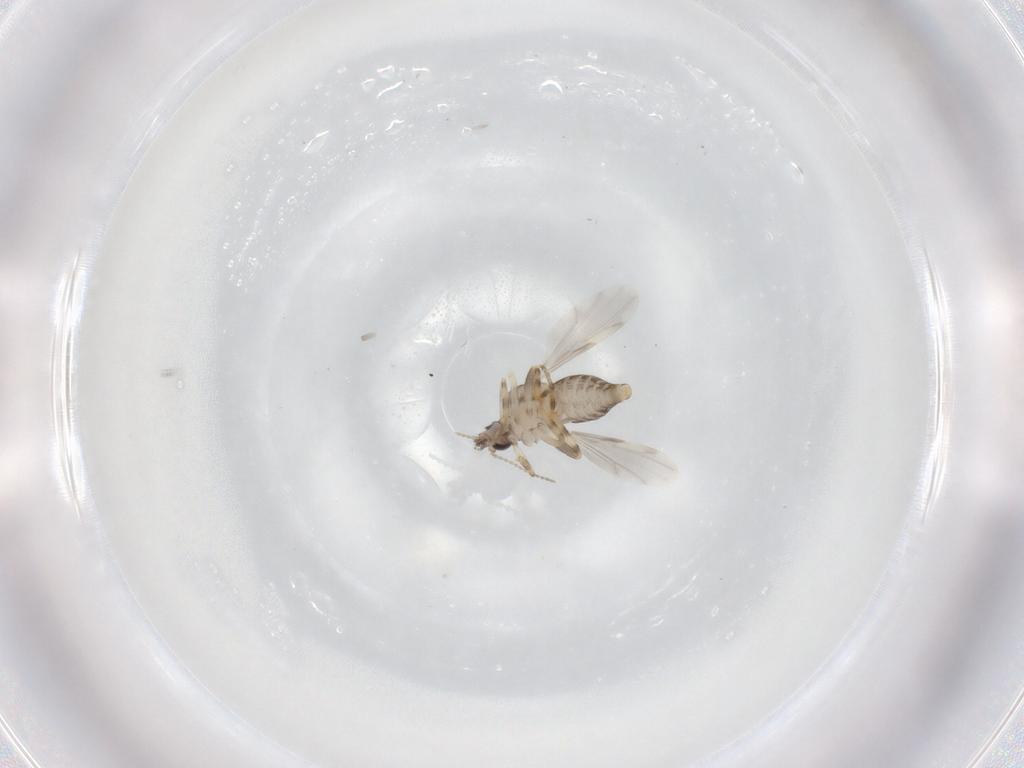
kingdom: Animalia
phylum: Arthropoda
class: Insecta
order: Diptera
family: Ceratopogonidae
